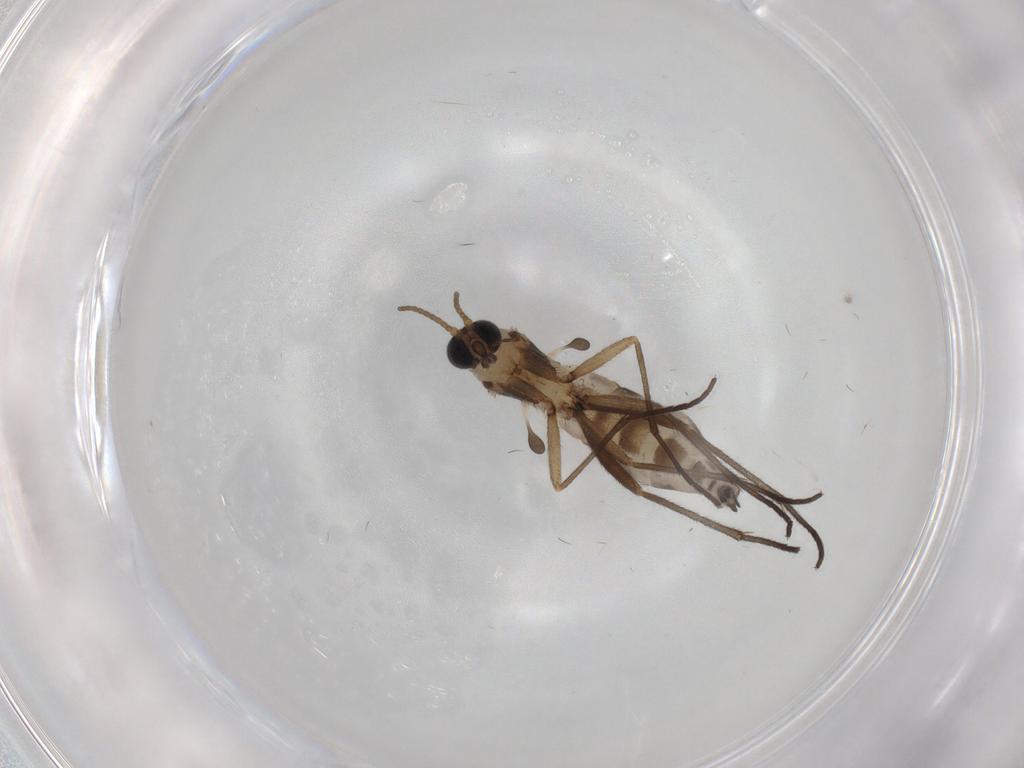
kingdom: Animalia
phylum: Arthropoda
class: Insecta
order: Diptera
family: Sciaridae
